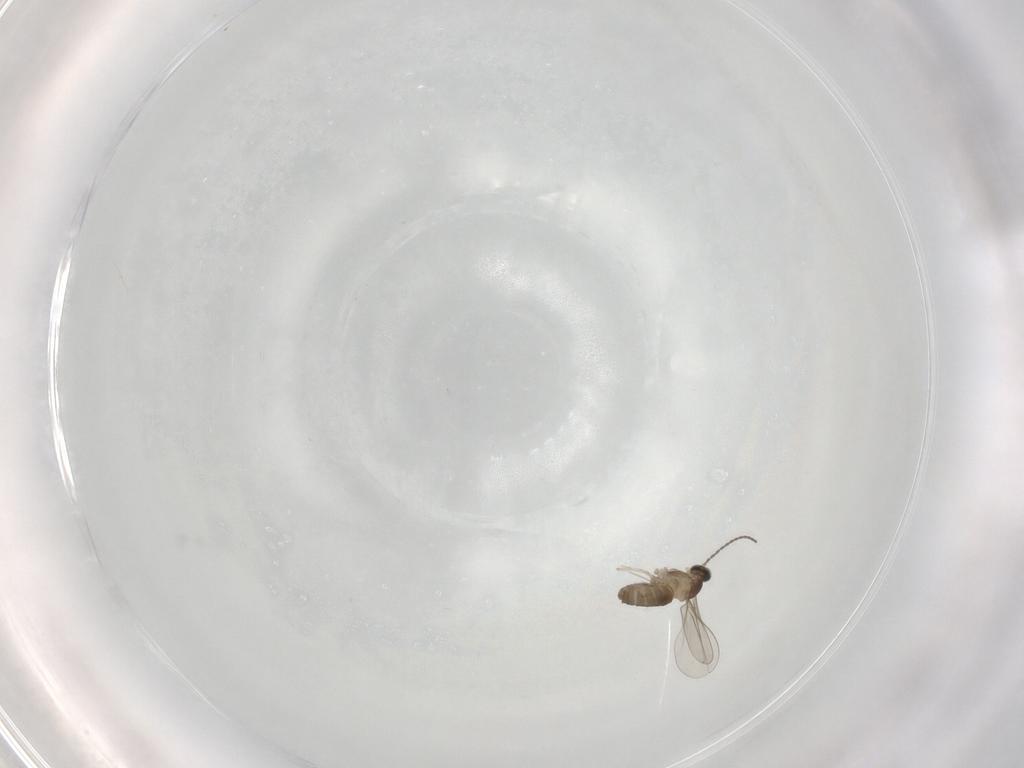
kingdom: Animalia
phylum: Arthropoda
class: Insecta
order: Diptera
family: Cecidomyiidae
